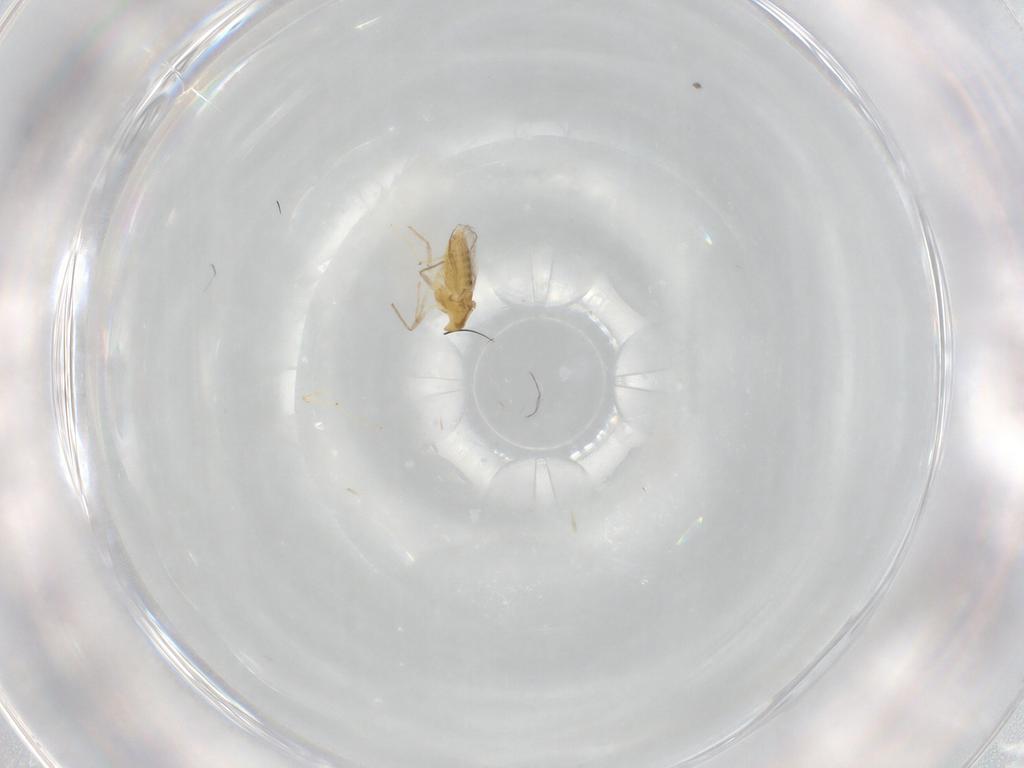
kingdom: Animalia
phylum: Arthropoda
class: Insecta
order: Diptera
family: Chironomidae
